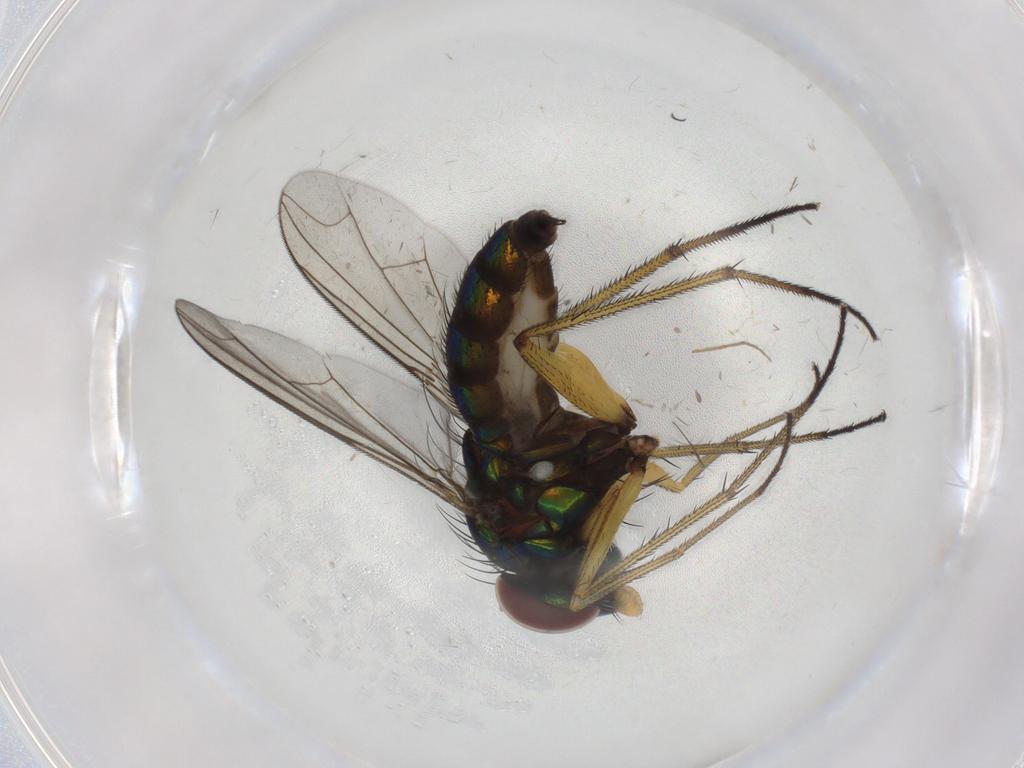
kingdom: Animalia
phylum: Arthropoda
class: Insecta
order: Diptera
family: Dolichopodidae
